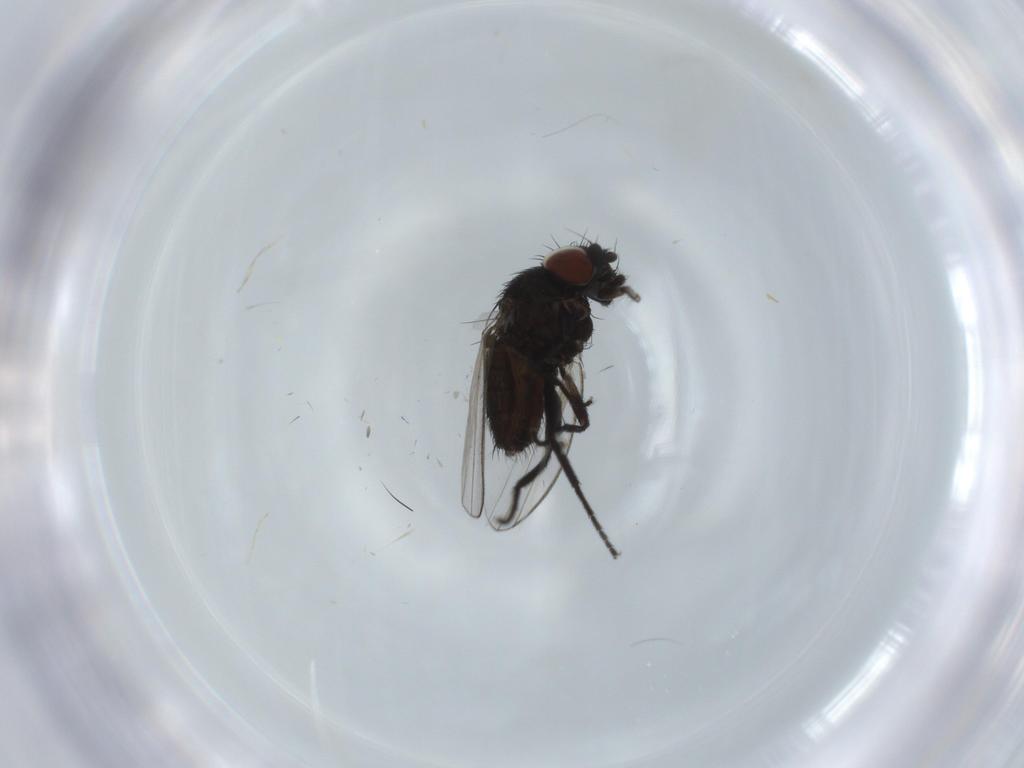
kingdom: Animalia
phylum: Arthropoda
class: Insecta
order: Diptera
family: Milichiidae
